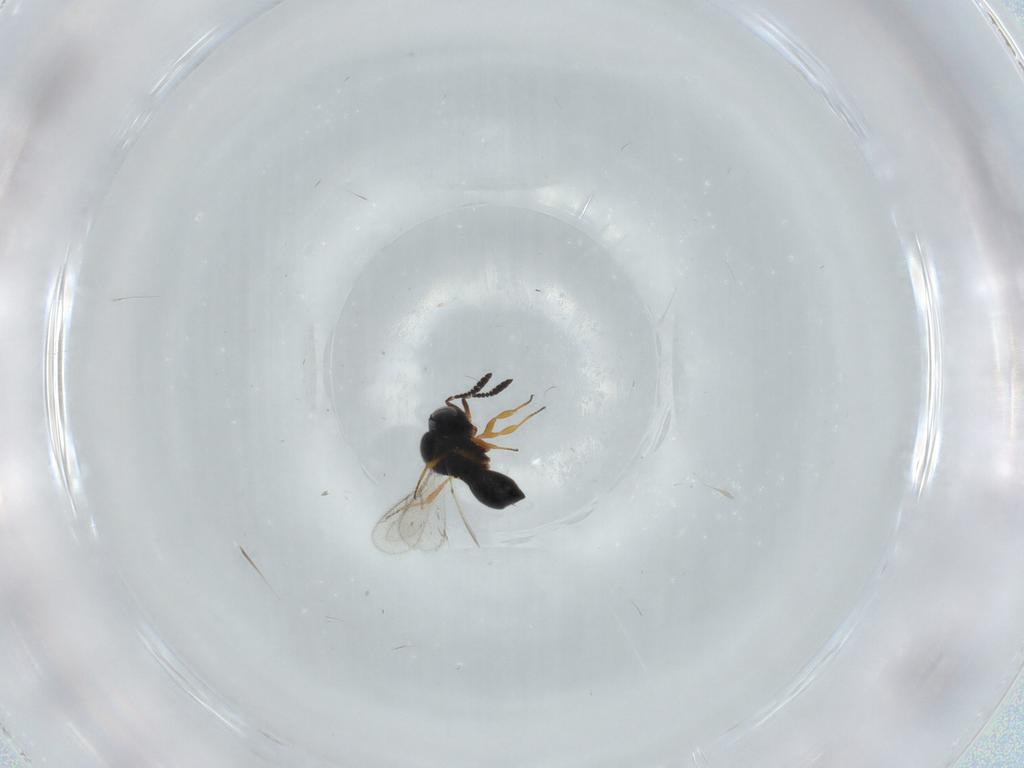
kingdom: Animalia
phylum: Arthropoda
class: Insecta
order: Hymenoptera
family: Scelionidae
